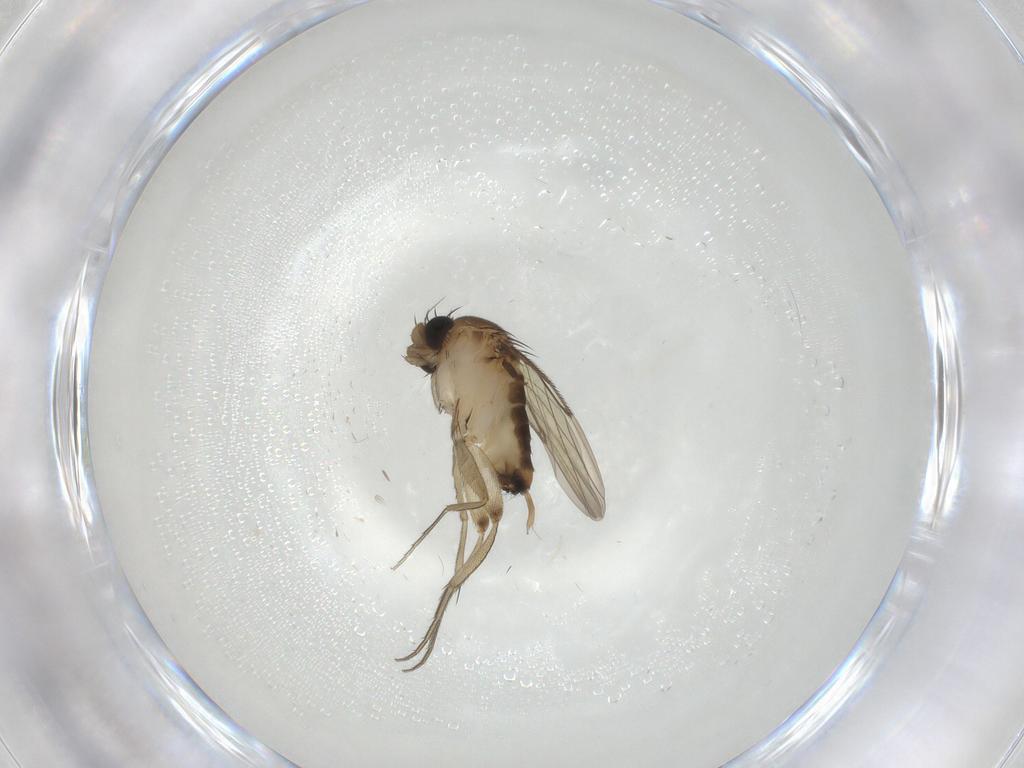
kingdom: Animalia
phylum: Arthropoda
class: Insecta
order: Diptera
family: Cecidomyiidae
